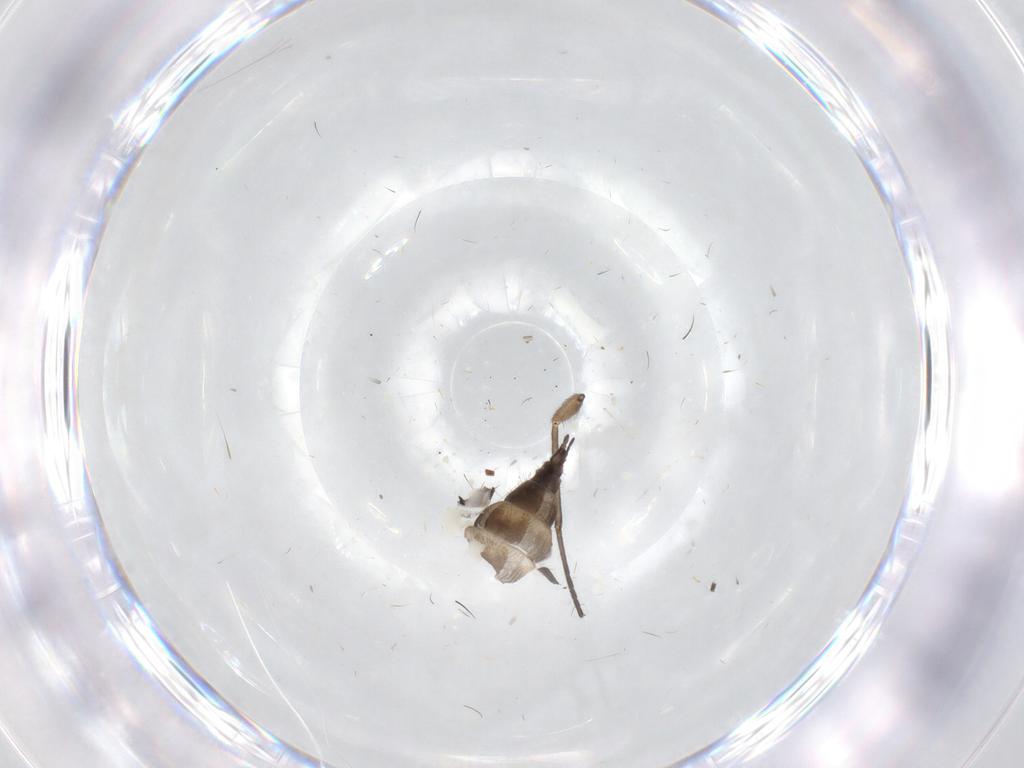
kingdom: Animalia
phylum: Arthropoda
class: Insecta
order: Diptera
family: Sciaridae
